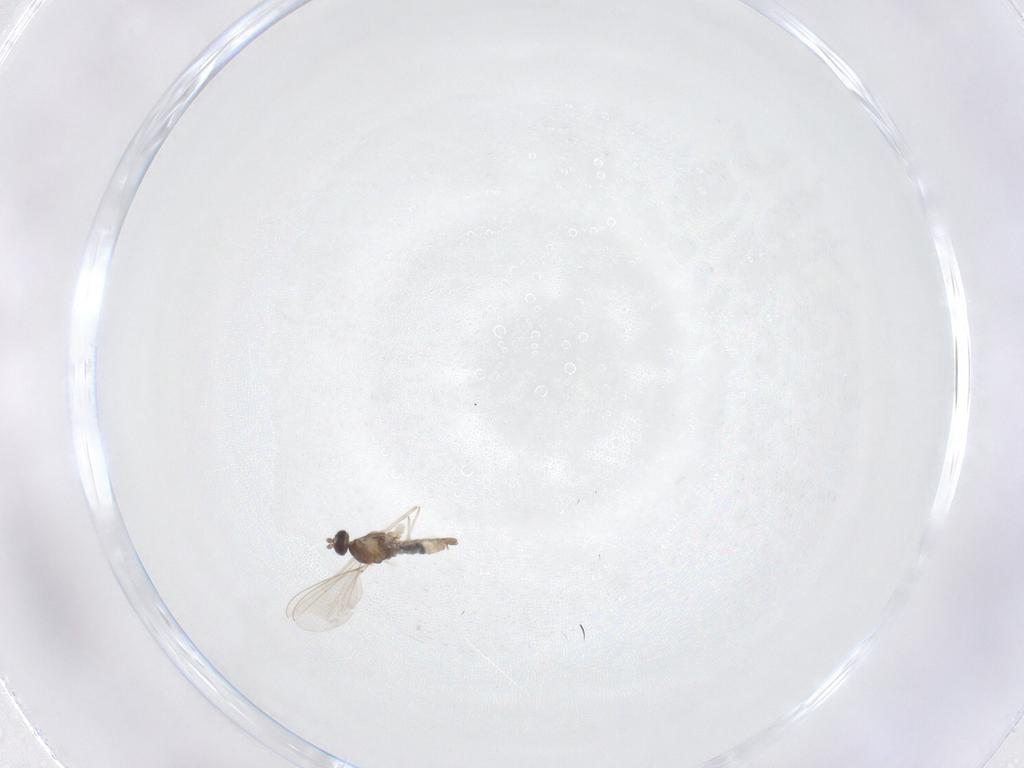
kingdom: Animalia
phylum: Arthropoda
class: Insecta
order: Diptera
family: Cecidomyiidae
